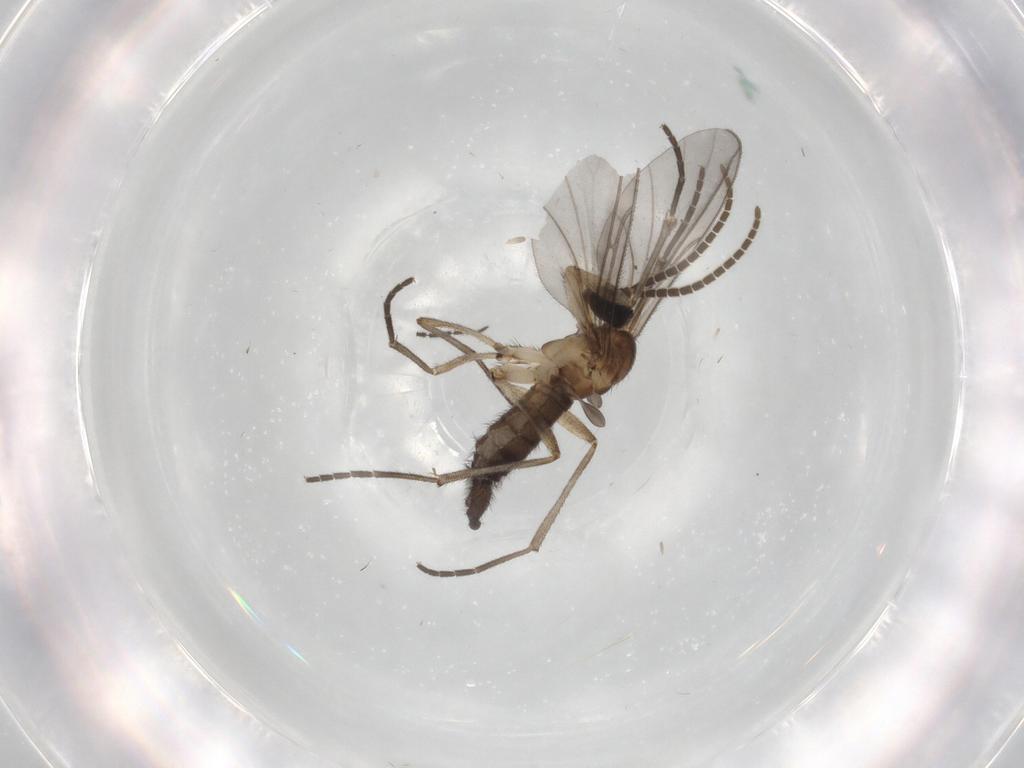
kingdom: Animalia
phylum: Arthropoda
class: Insecta
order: Diptera
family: Sciaridae
